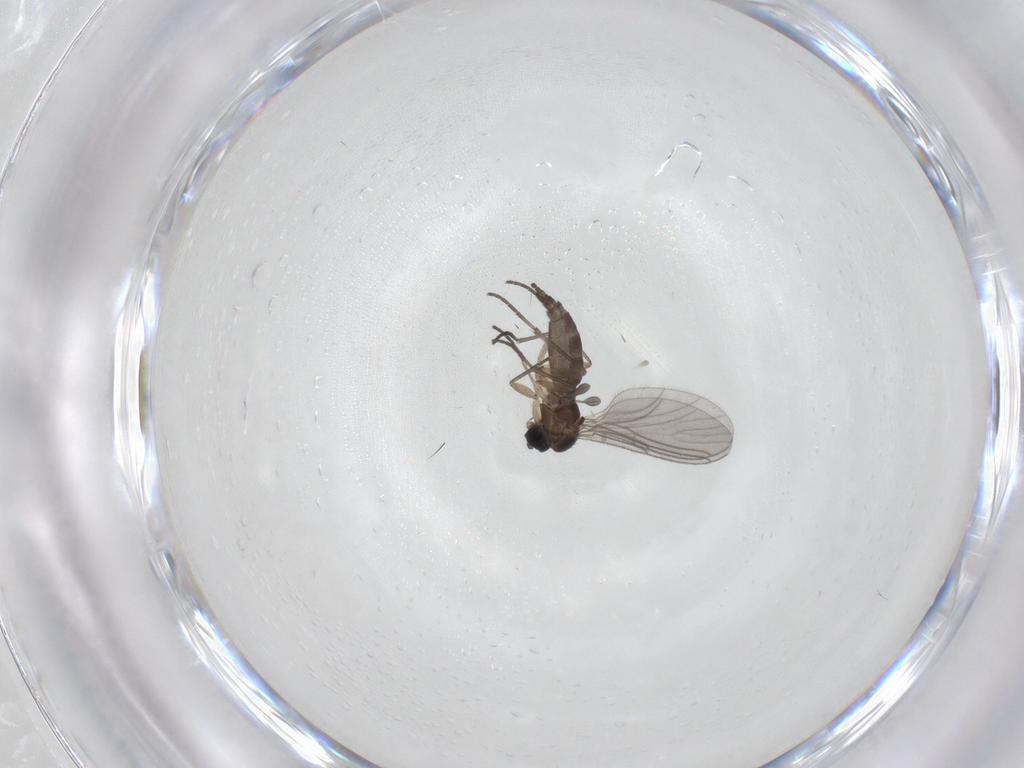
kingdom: Animalia
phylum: Arthropoda
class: Insecta
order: Diptera
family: Sciaridae
